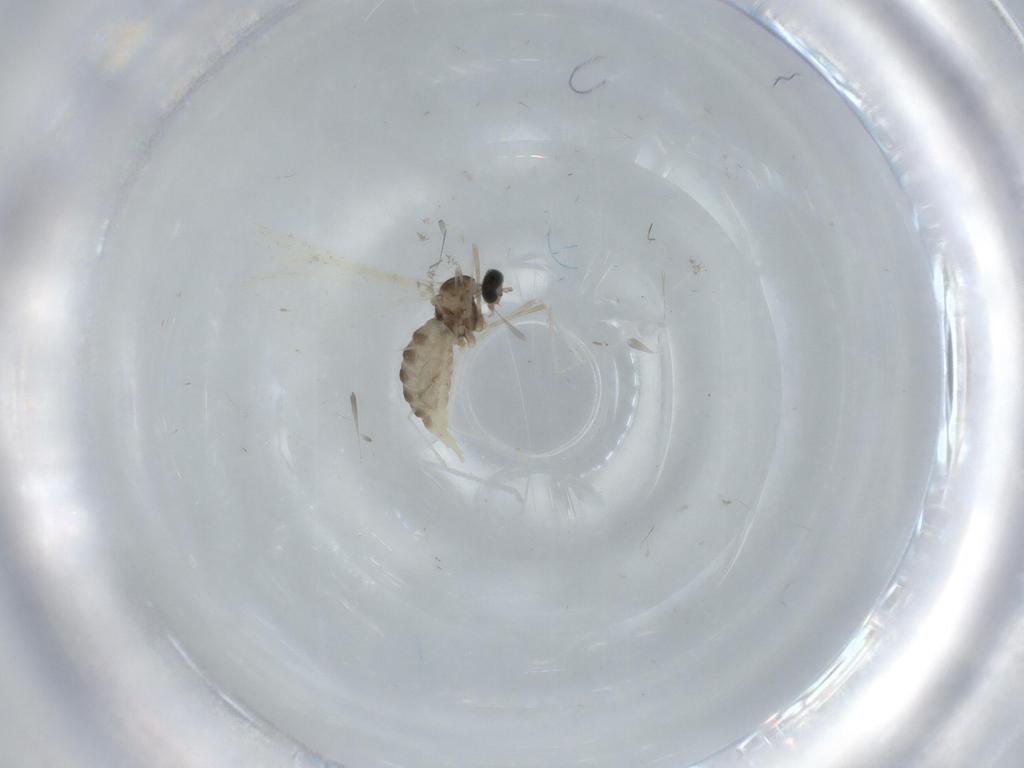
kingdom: Animalia
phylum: Arthropoda
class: Insecta
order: Diptera
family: Cecidomyiidae
